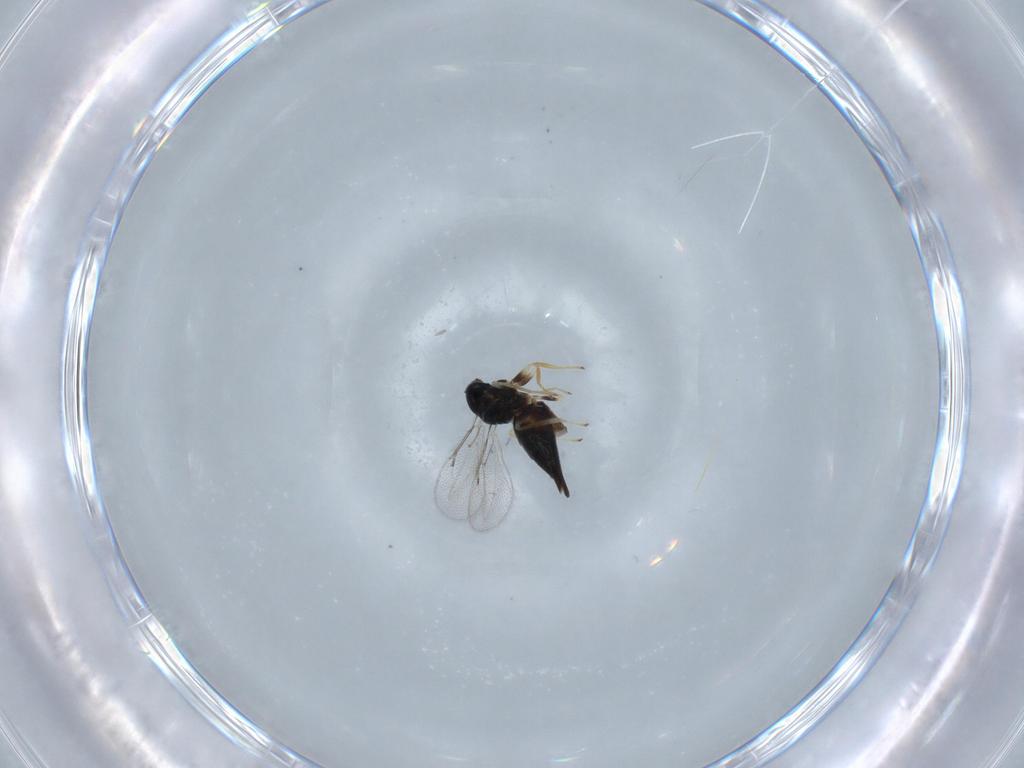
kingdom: Animalia
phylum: Arthropoda
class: Insecta
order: Hymenoptera
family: Eulophidae
